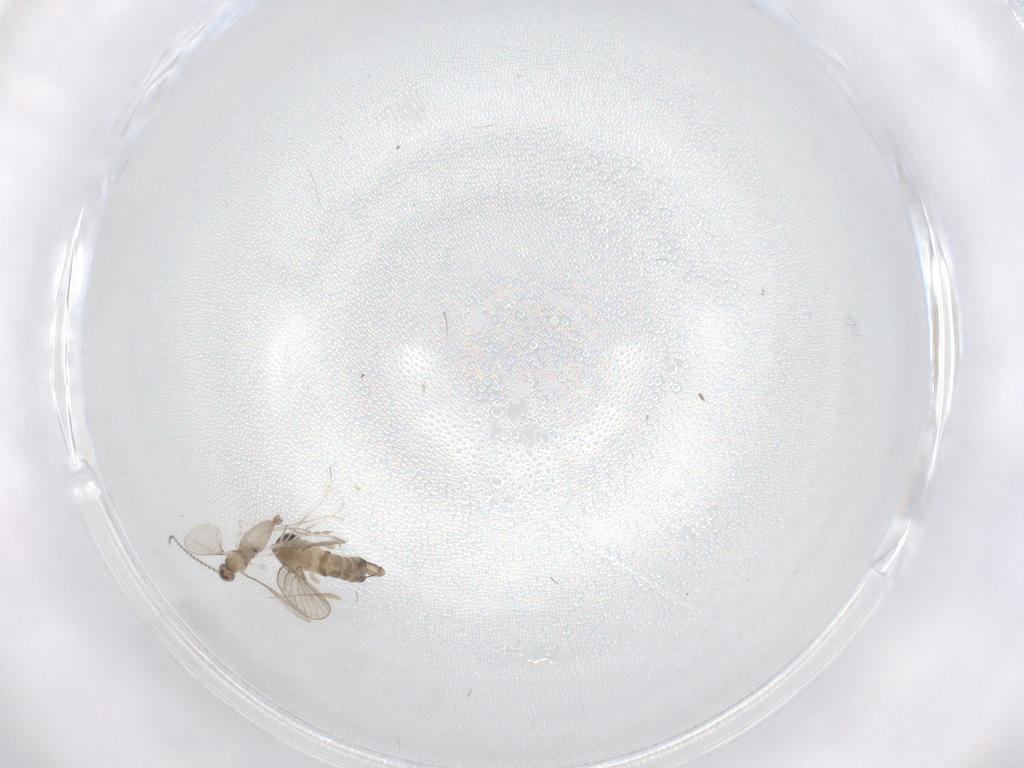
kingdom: Animalia
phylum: Arthropoda
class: Insecta
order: Diptera
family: Cecidomyiidae
